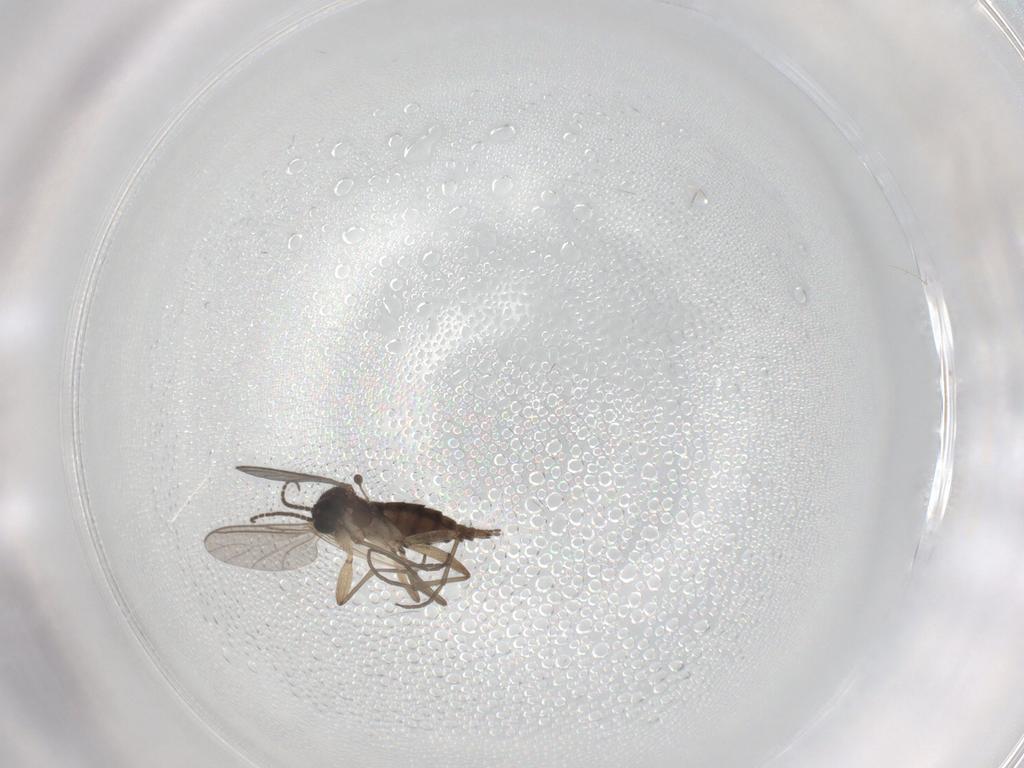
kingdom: Animalia
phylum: Arthropoda
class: Insecta
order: Diptera
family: Sciaridae
